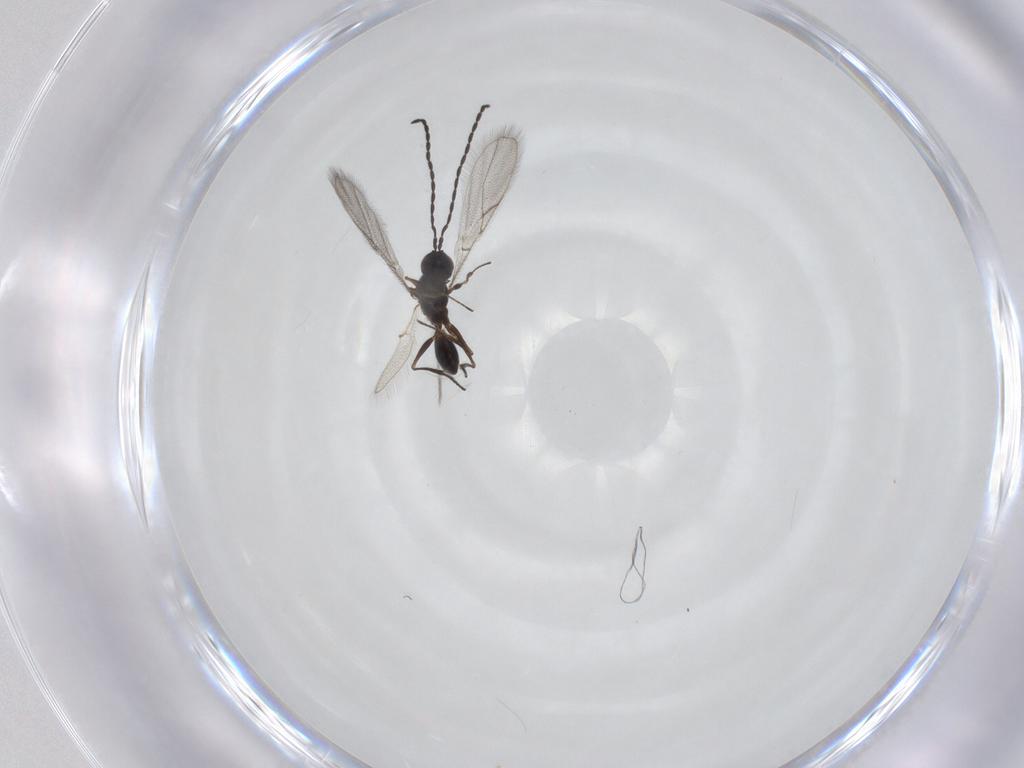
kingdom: Animalia
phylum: Arthropoda
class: Insecta
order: Hymenoptera
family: Figitidae
